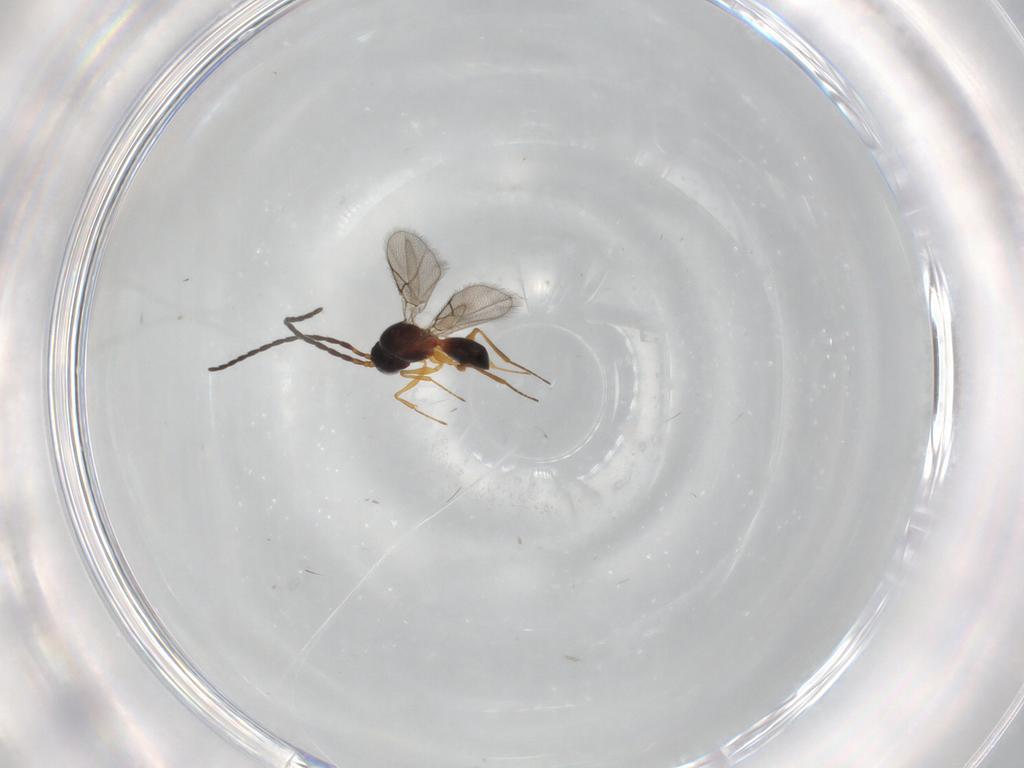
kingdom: Animalia
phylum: Arthropoda
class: Insecta
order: Hymenoptera
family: Figitidae
